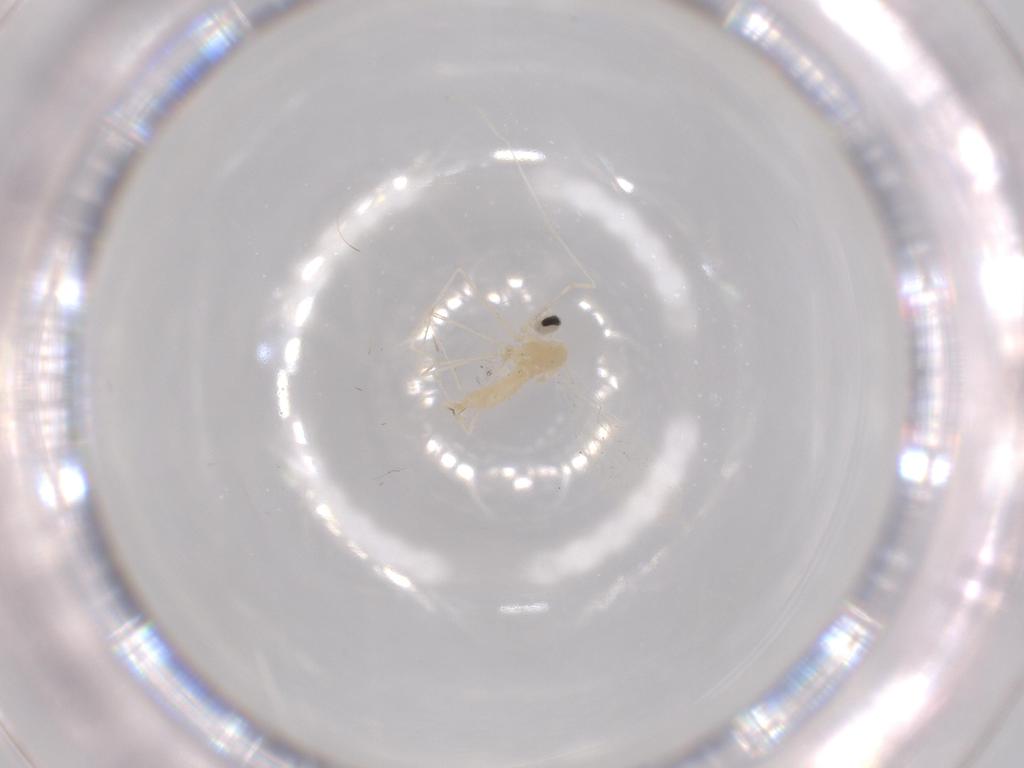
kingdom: Animalia
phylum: Arthropoda
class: Insecta
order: Diptera
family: Cecidomyiidae
